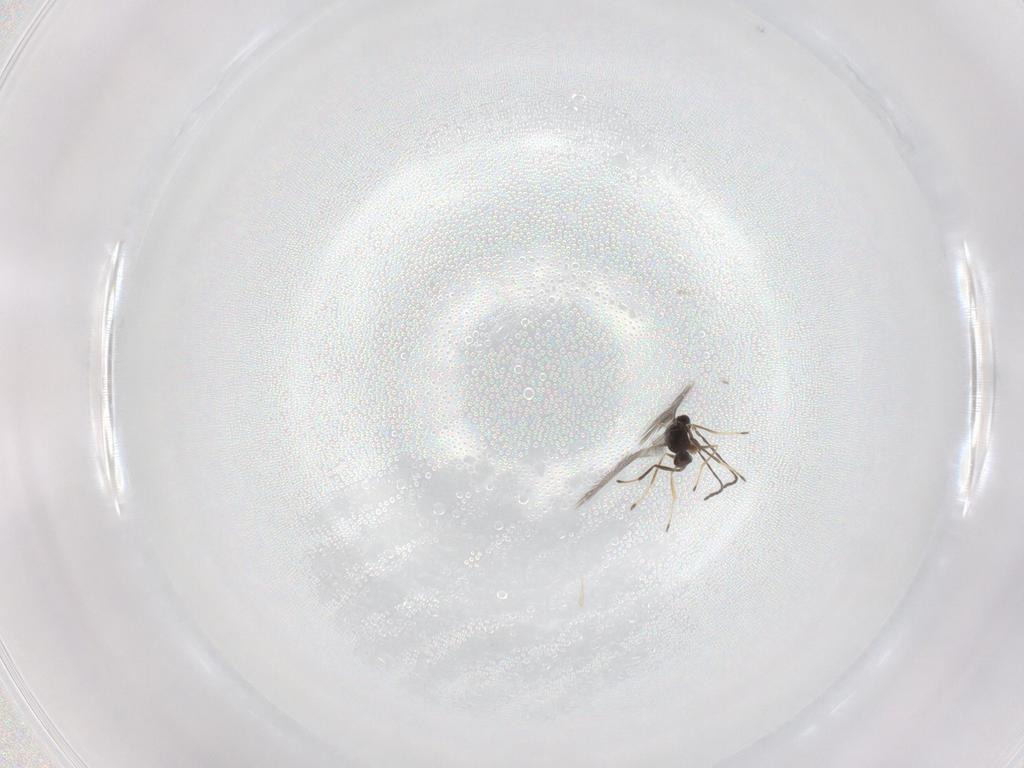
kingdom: Animalia
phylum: Arthropoda
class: Insecta
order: Hymenoptera
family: Mymaridae
